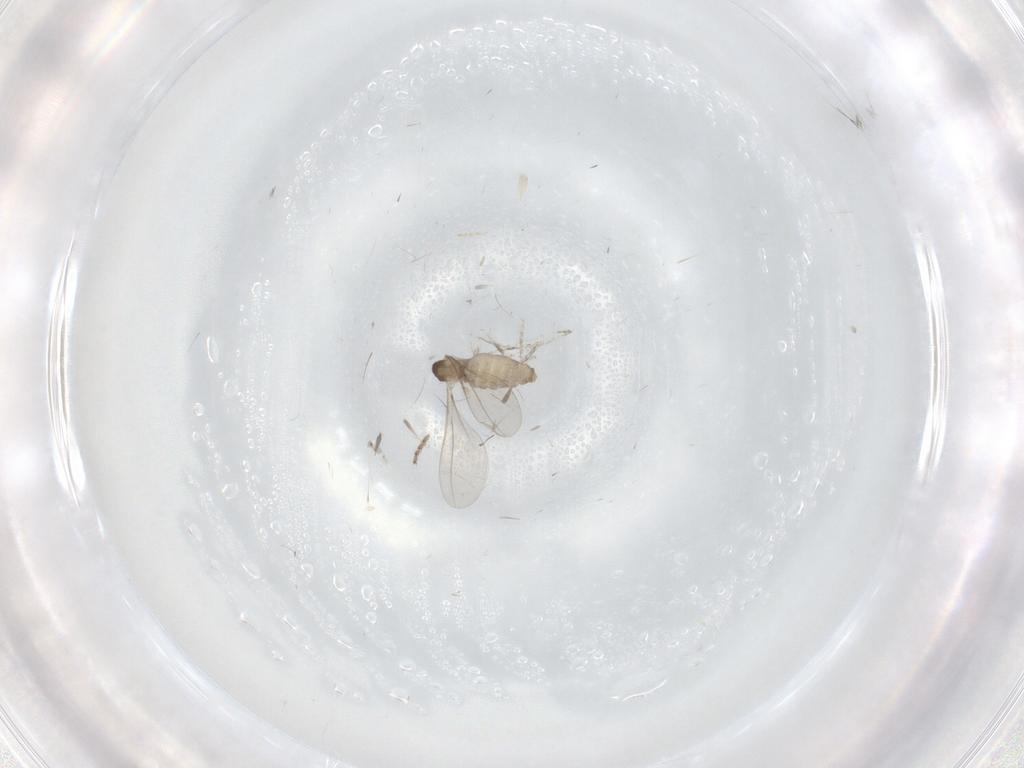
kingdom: Animalia
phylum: Arthropoda
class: Insecta
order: Diptera
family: Ceratopogonidae
